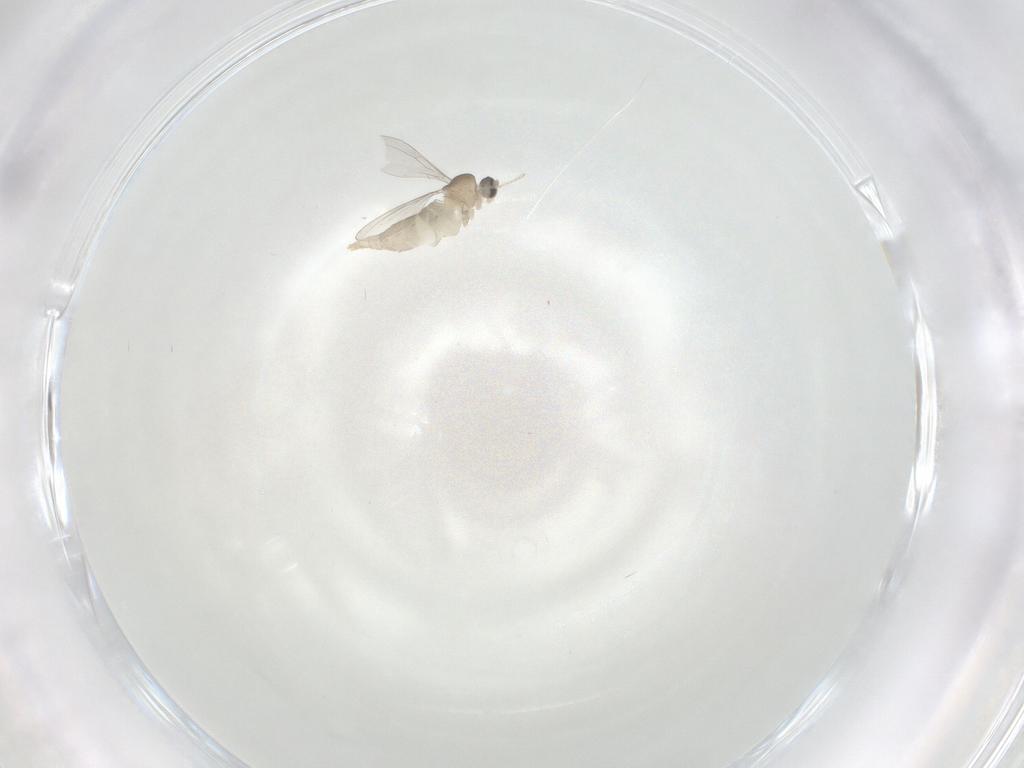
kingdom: Animalia
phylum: Arthropoda
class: Insecta
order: Diptera
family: Cecidomyiidae
